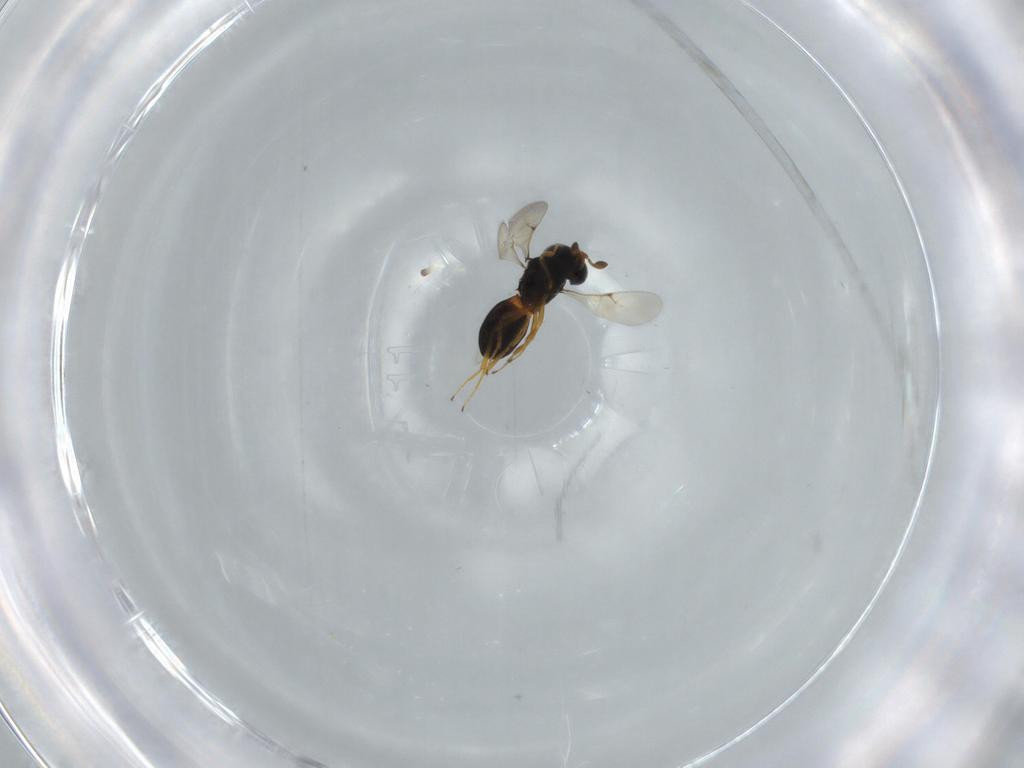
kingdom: Animalia
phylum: Arthropoda
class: Insecta
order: Hymenoptera
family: Scelionidae
